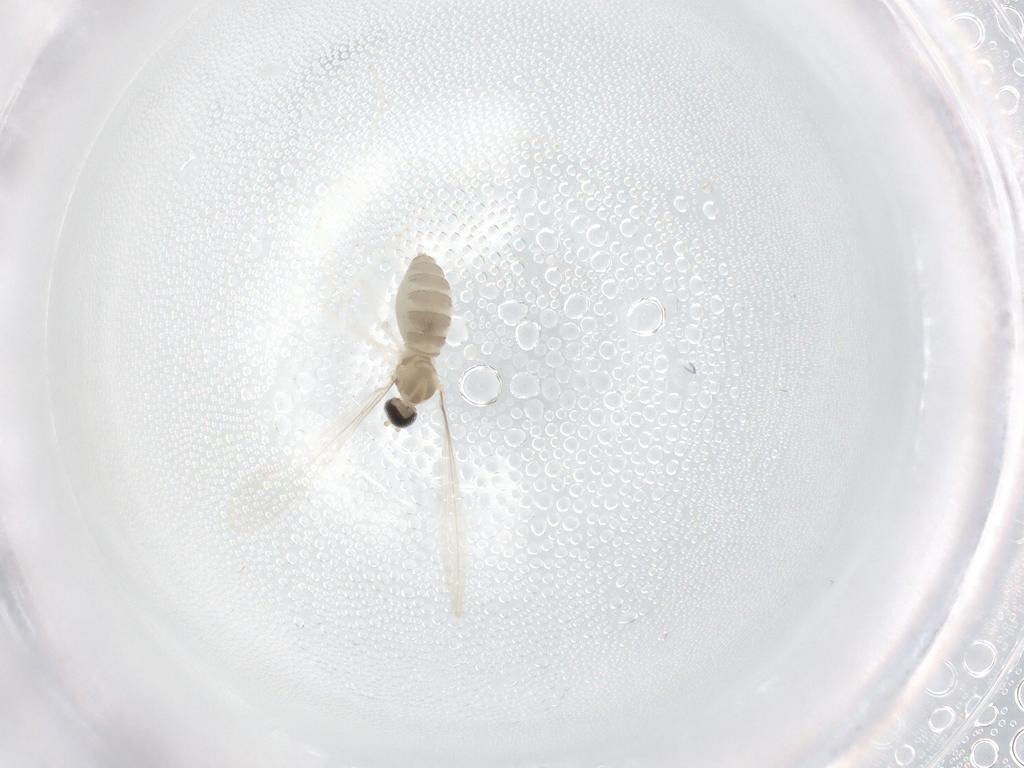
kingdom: Animalia
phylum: Arthropoda
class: Insecta
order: Diptera
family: Cecidomyiidae
